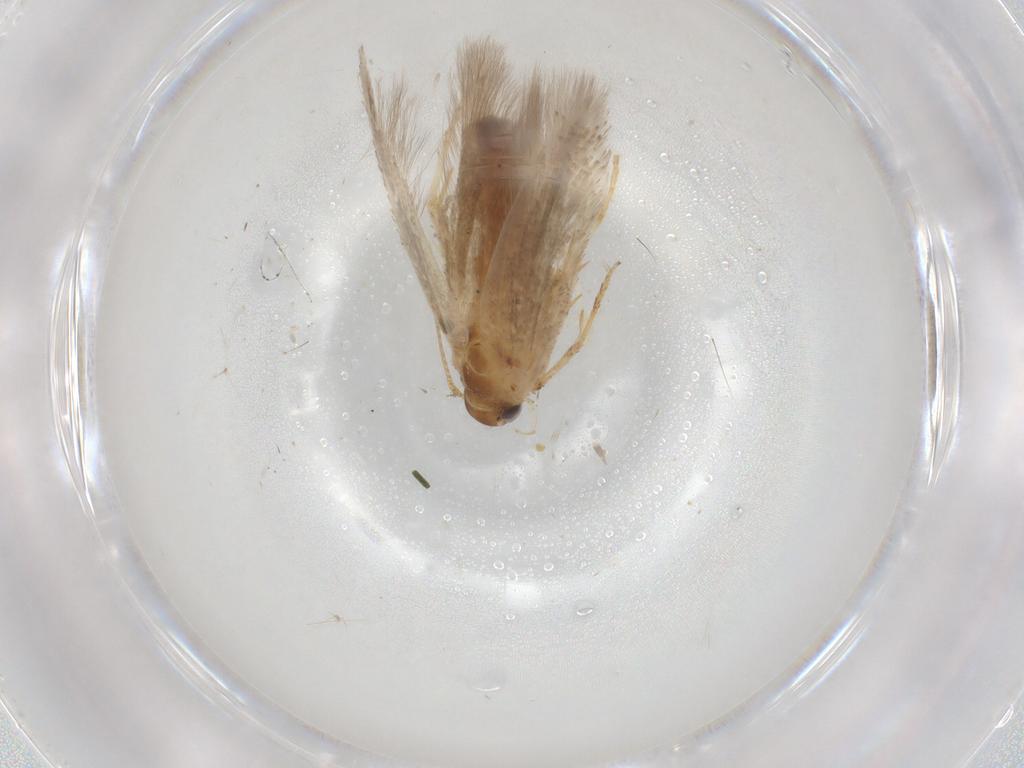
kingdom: Animalia
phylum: Arthropoda
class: Insecta
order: Lepidoptera
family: Gelechiidae
